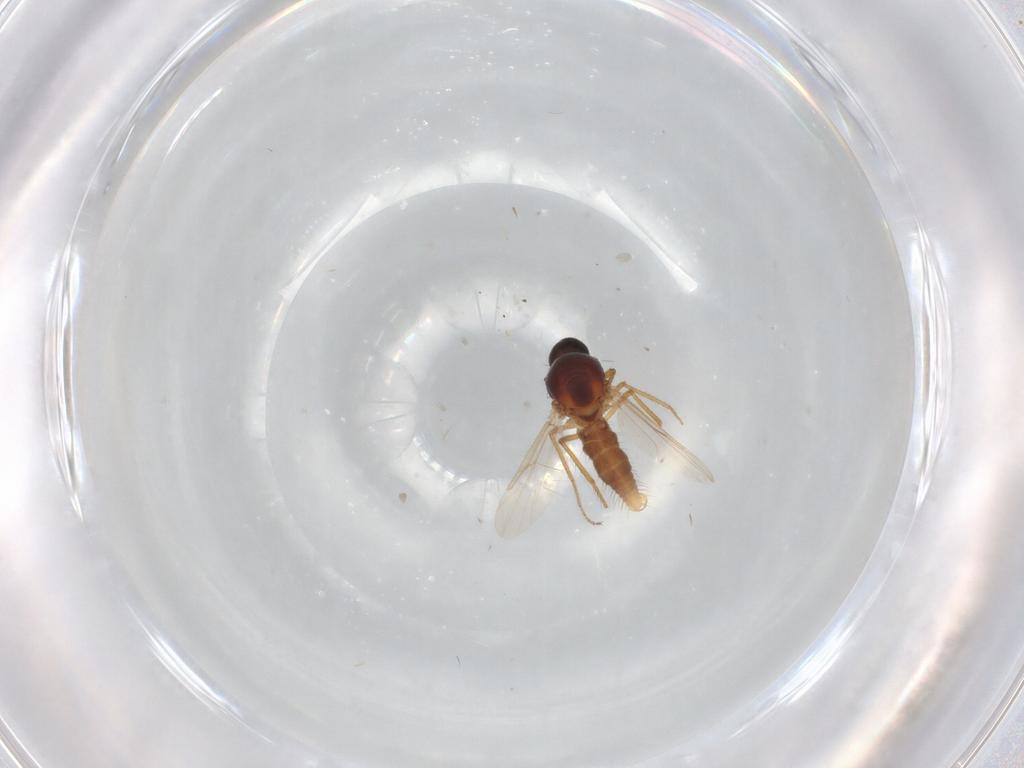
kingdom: Animalia
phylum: Arthropoda
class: Insecta
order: Diptera
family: Ceratopogonidae
